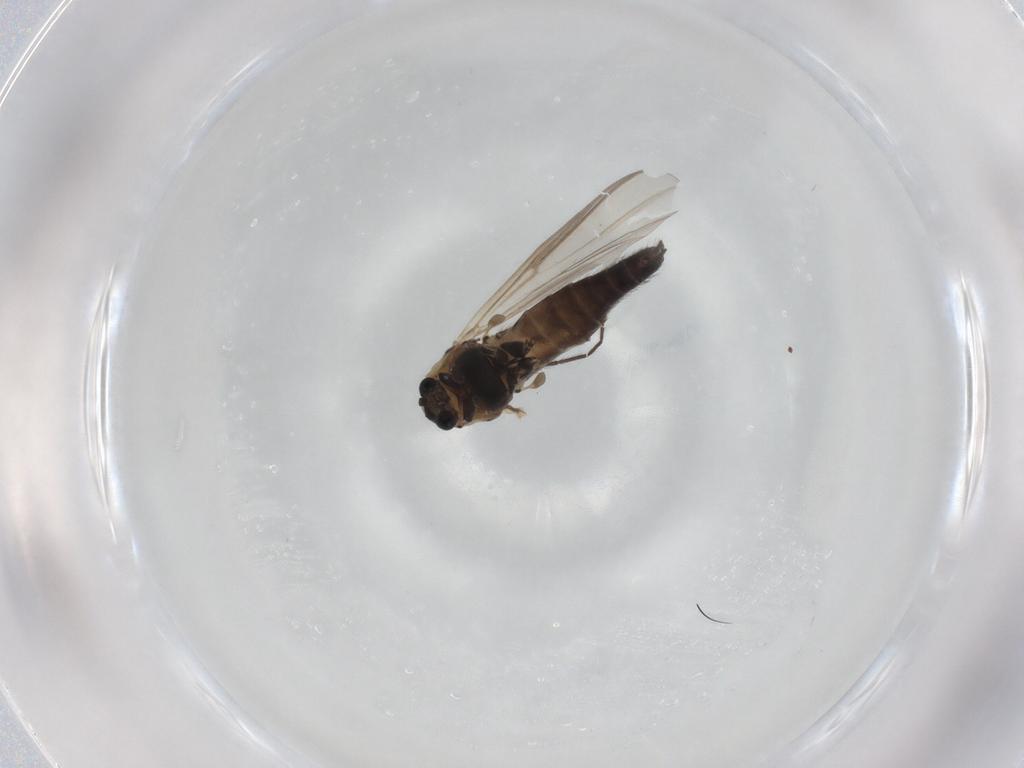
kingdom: Animalia
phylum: Arthropoda
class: Insecta
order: Diptera
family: Chironomidae
